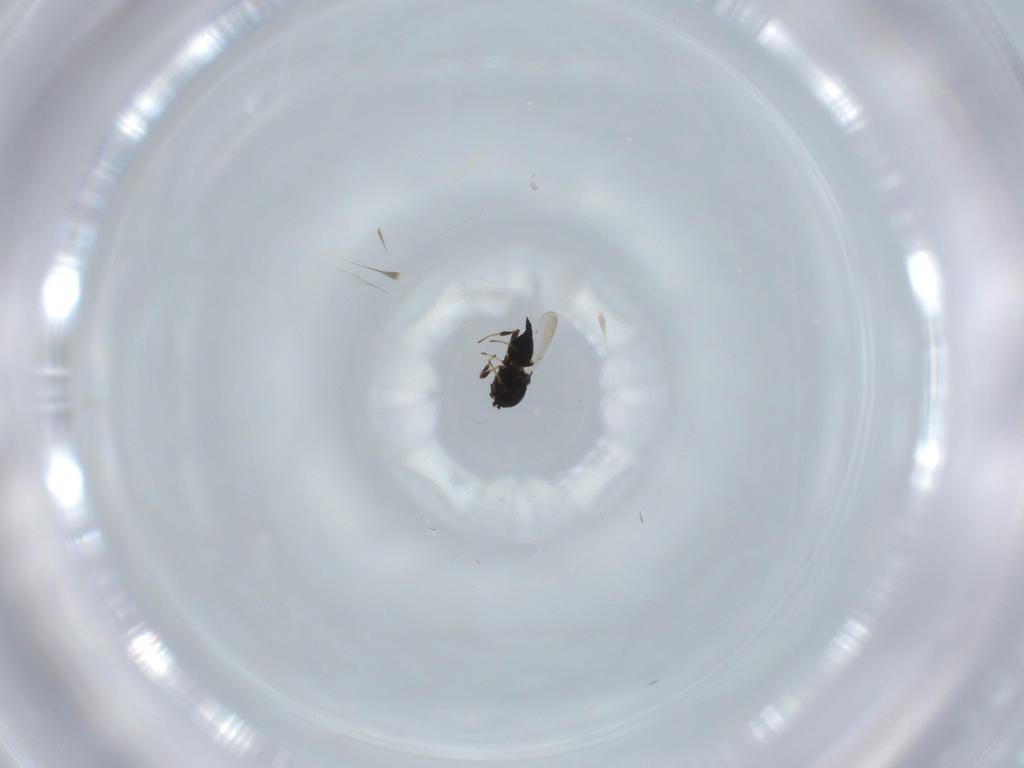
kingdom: Animalia
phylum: Arthropoda
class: Insecta
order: Hymenoptera
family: Platygastridae
